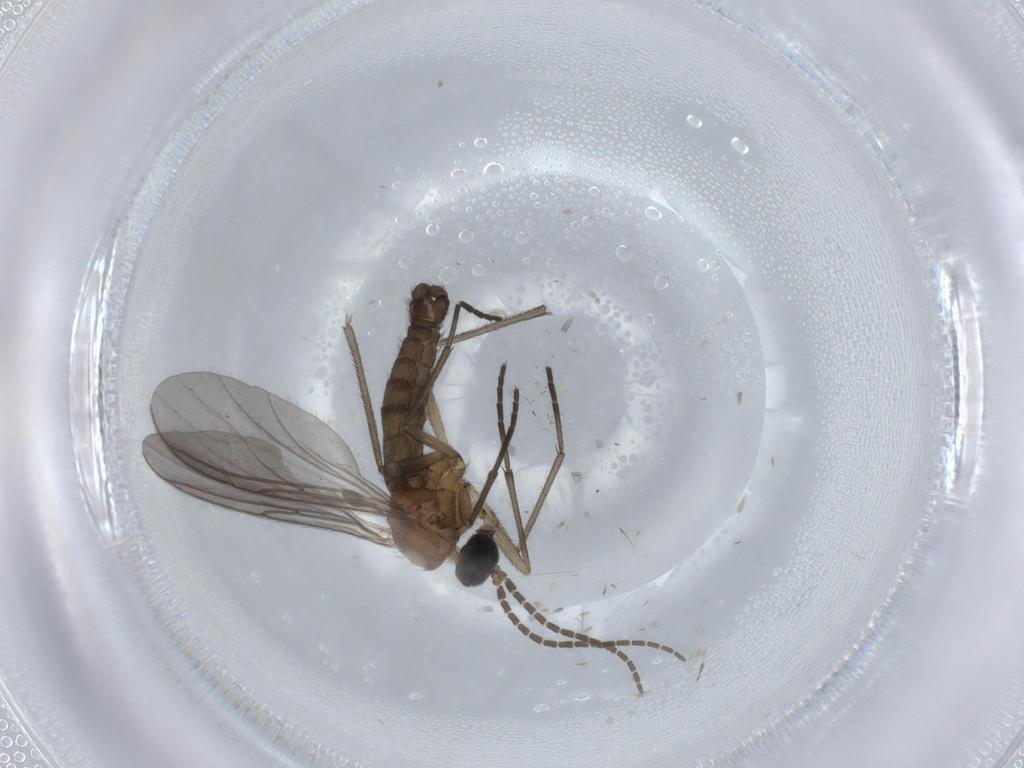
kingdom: Animalia
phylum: Arthropoda
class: Insecta
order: Diptera
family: Sciaridae
